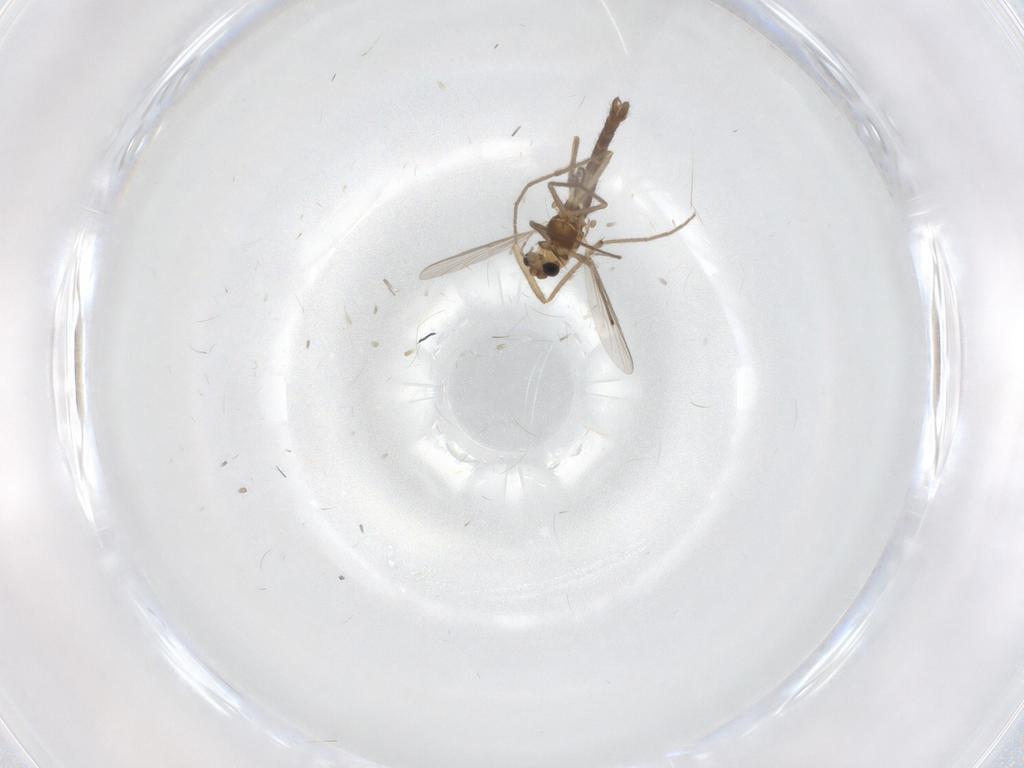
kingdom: Animalia
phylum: Arthropoda
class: Insecta
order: Diptera
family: Chironomidae
